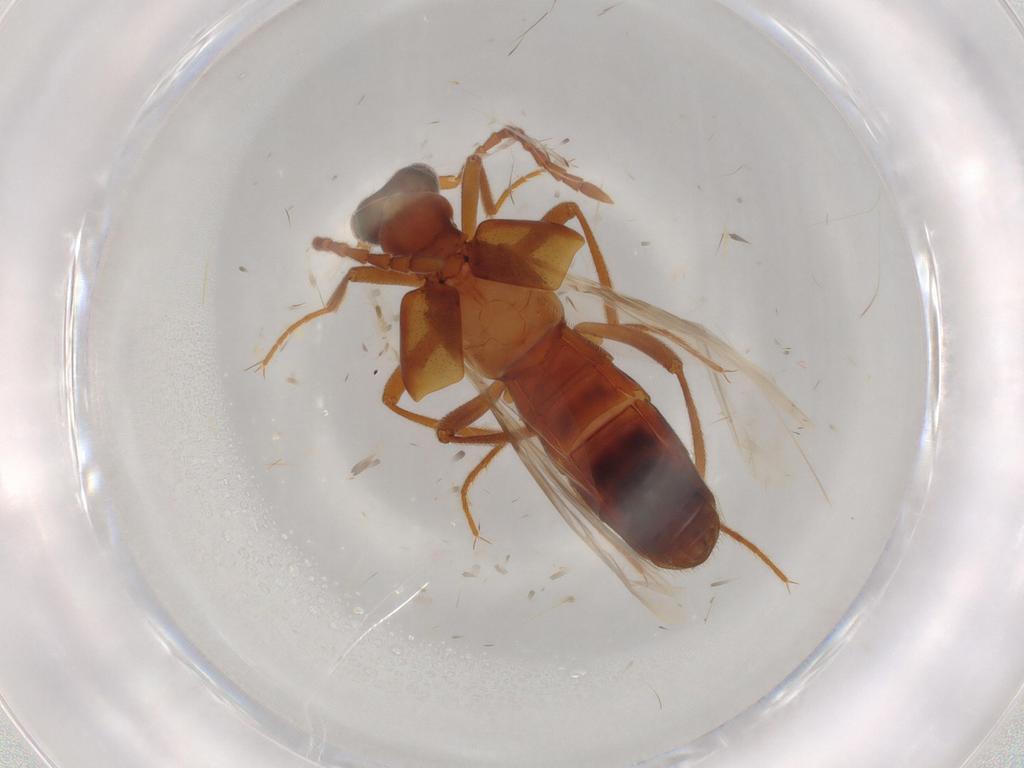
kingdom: Animalia
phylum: Arthropoda
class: Insecta
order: Coleoptera
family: Staphylinidae
